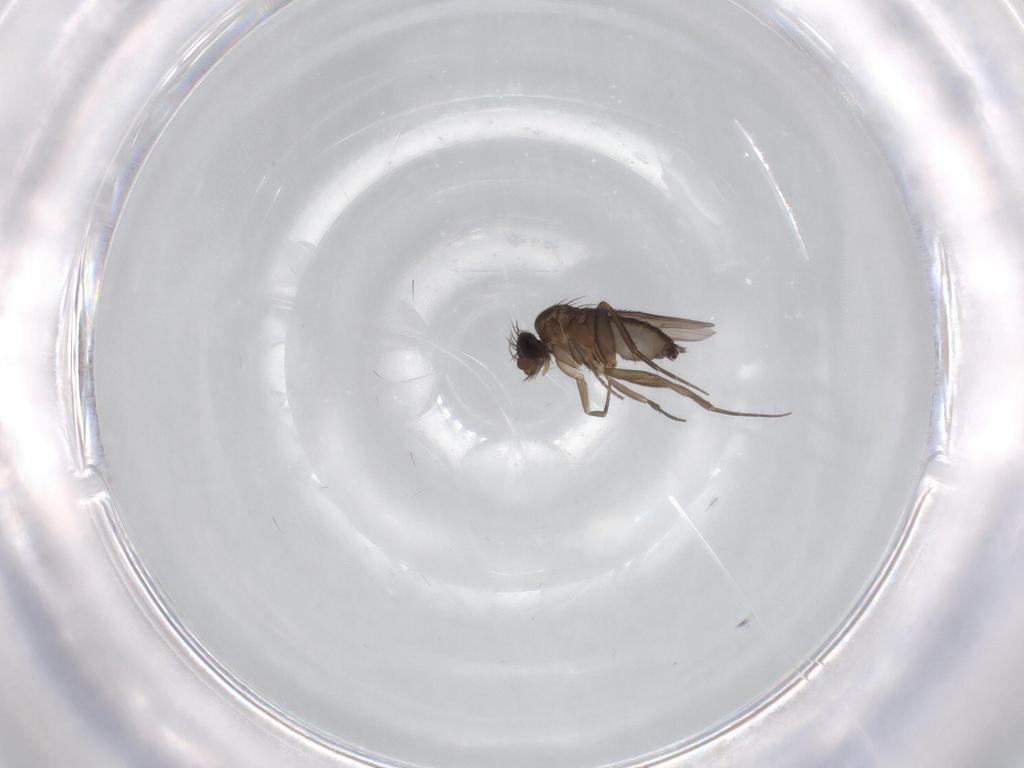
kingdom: Animalia
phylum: Arthropoda
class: Insecta
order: Diptera
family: Phoridae
